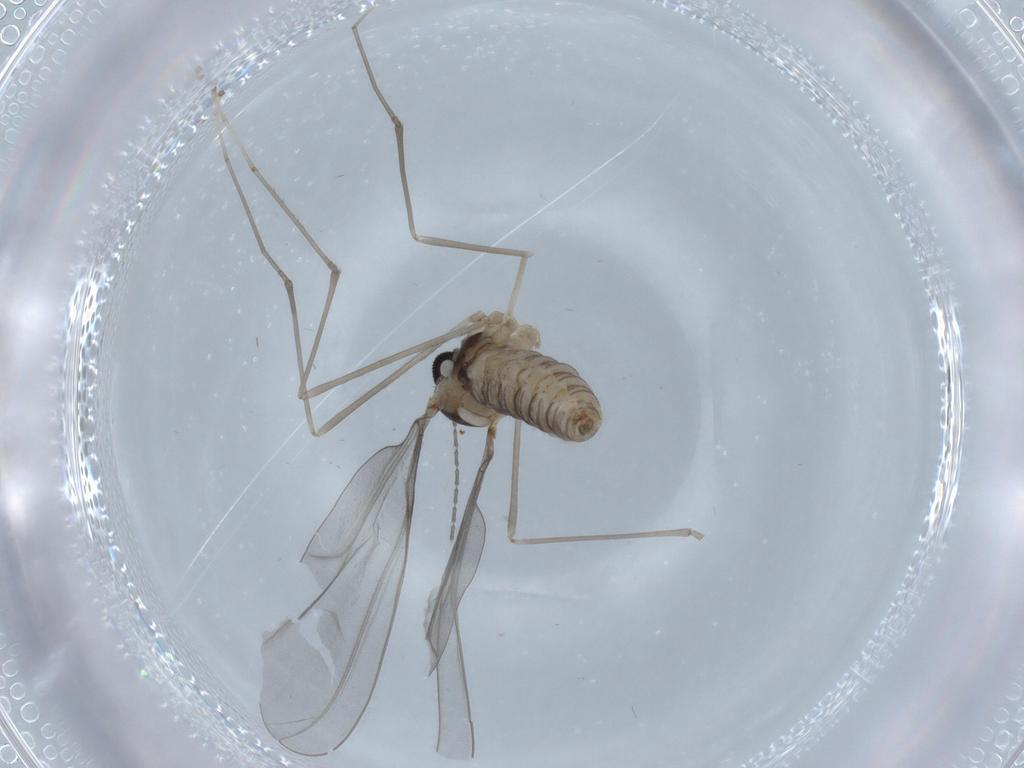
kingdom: Animalia
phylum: Arthropoda
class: Insecta
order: Diptera
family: Cecidomyiidae
